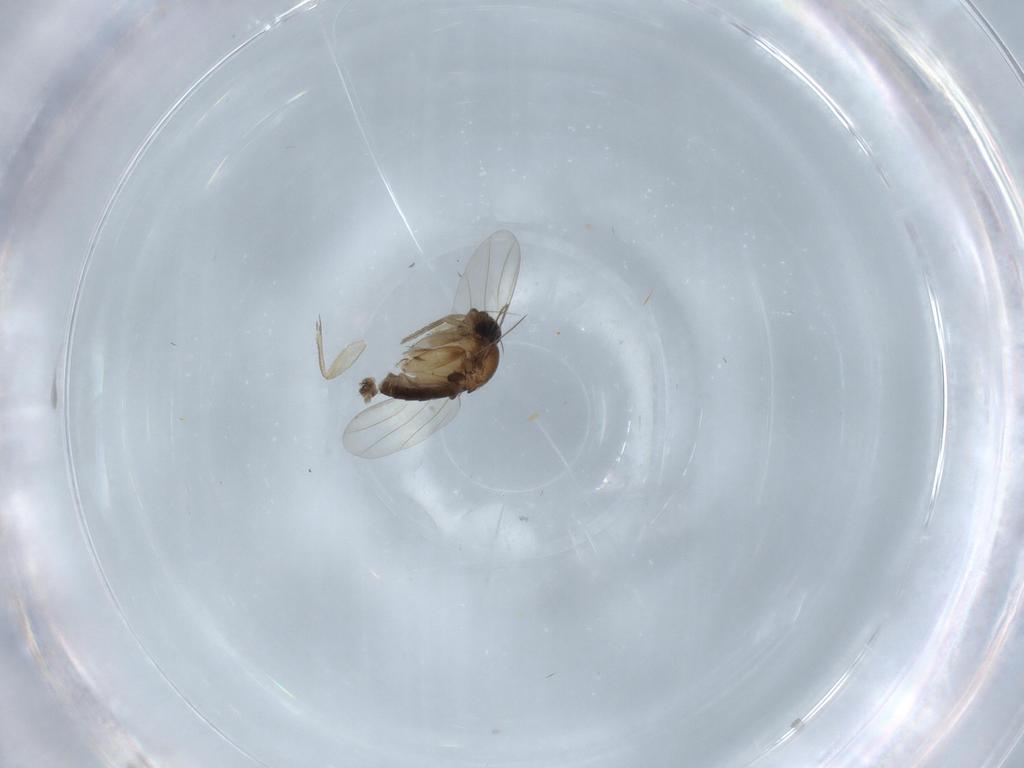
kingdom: Animalia
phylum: Arthropoda
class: Insecta
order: Diptera
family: Phoridae
